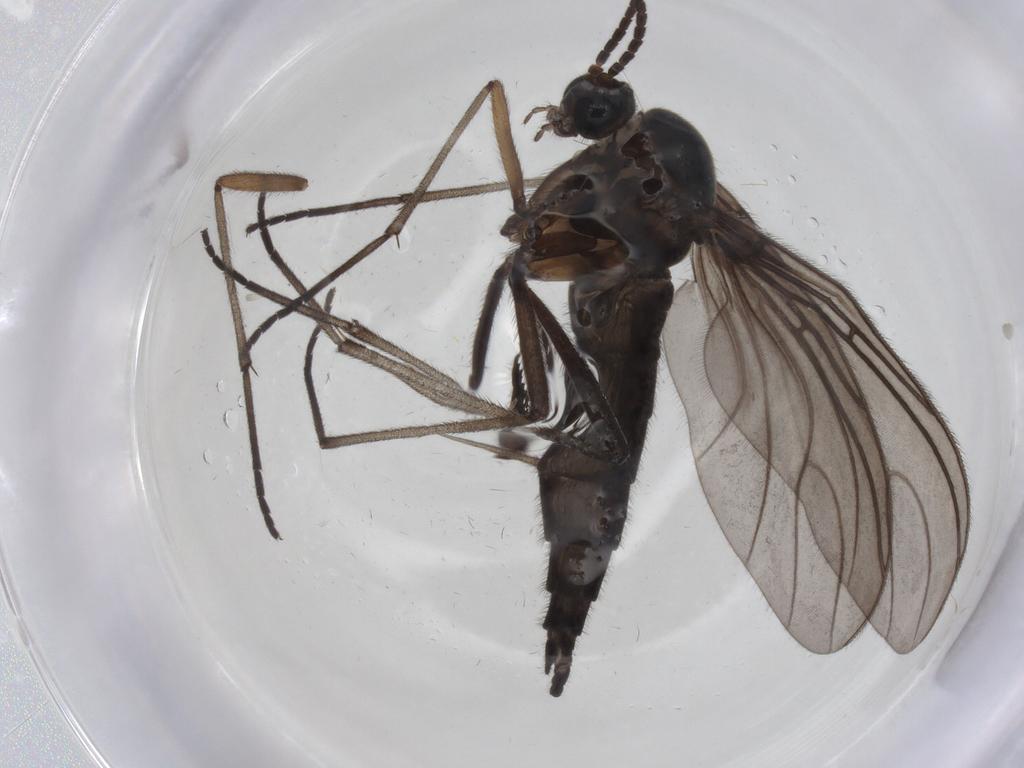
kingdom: Animalia
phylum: Arthropoda
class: Insecta
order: Diptera
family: Sciaridae
